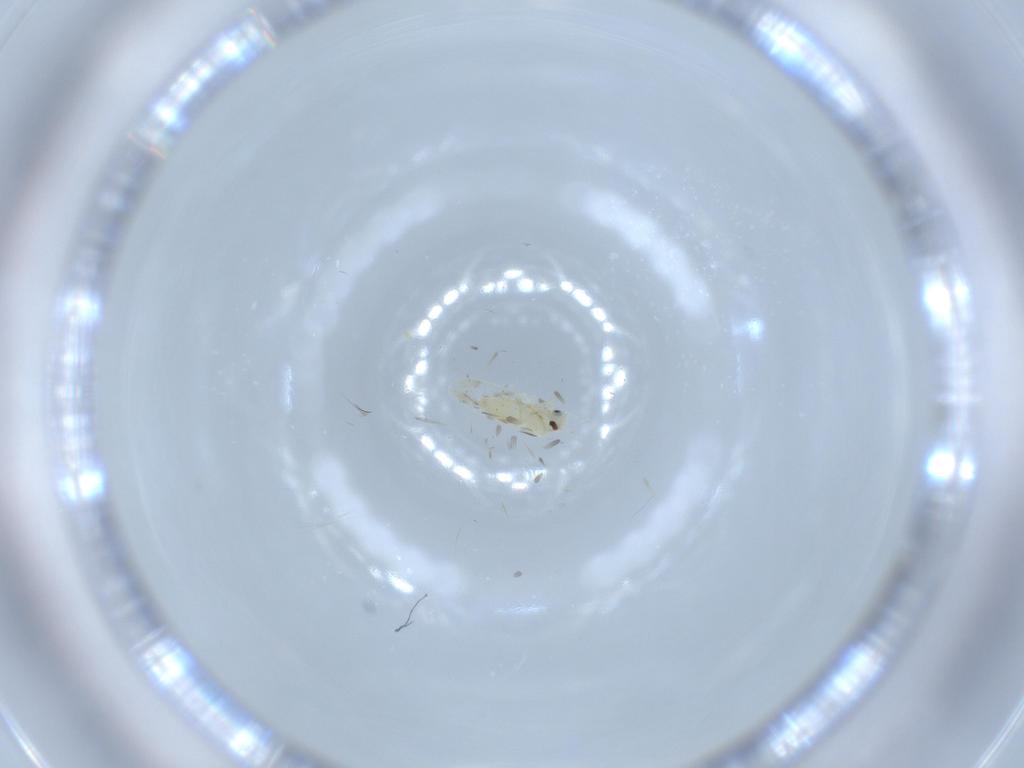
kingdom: Animalia
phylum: Arthropoda
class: Insecta
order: Hemiptera
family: Aleyrodidae
